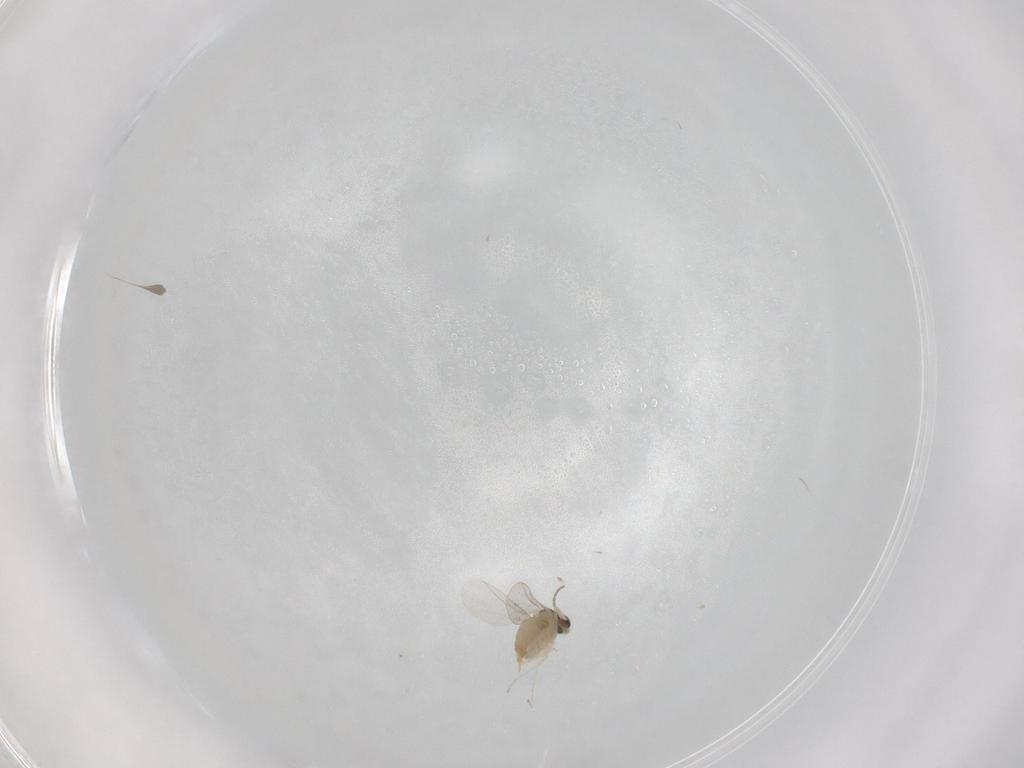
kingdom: Animalia
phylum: Arthropoda
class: Insecta
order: Diptera
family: Cecidomyiidae
